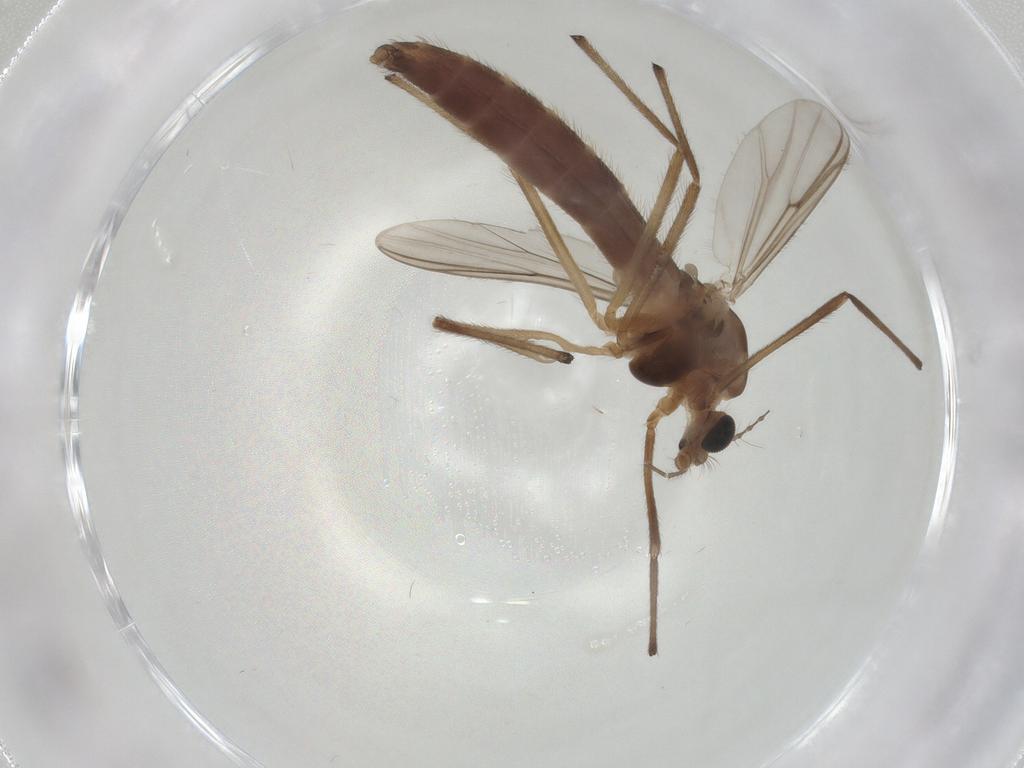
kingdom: Animalia
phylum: Arthropoda
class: Insecta
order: Diptera
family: Chironomidae
